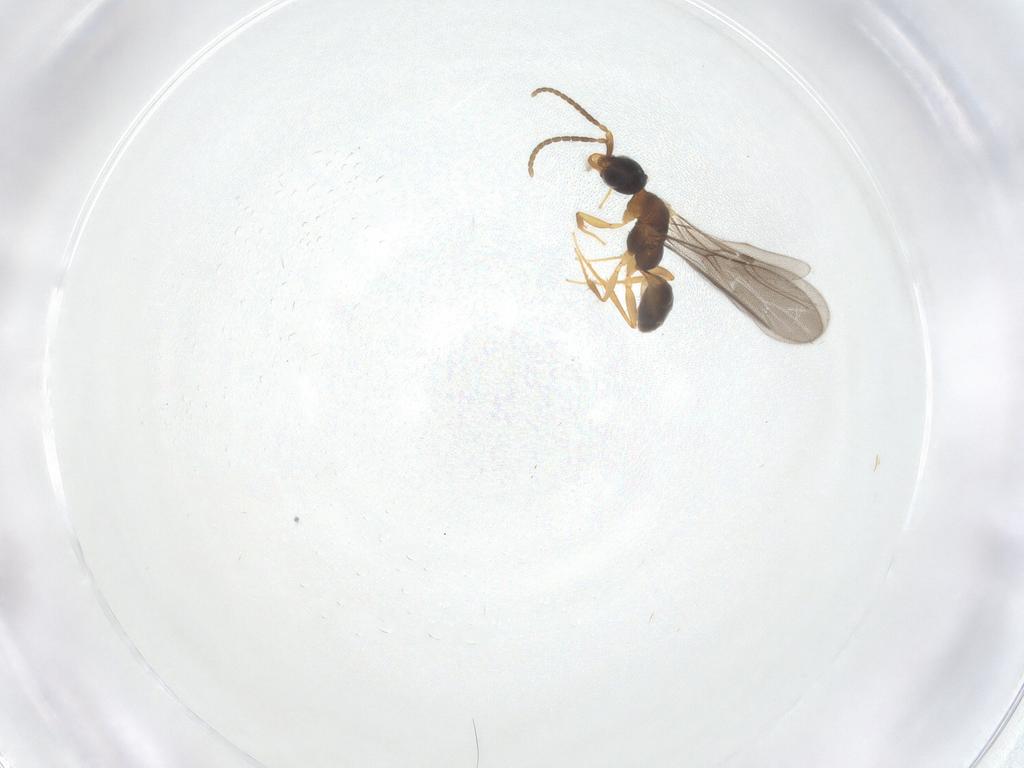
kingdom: Animalia
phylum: Arthropoda
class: Insecta
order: Hymenoptera
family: Bethylidae
